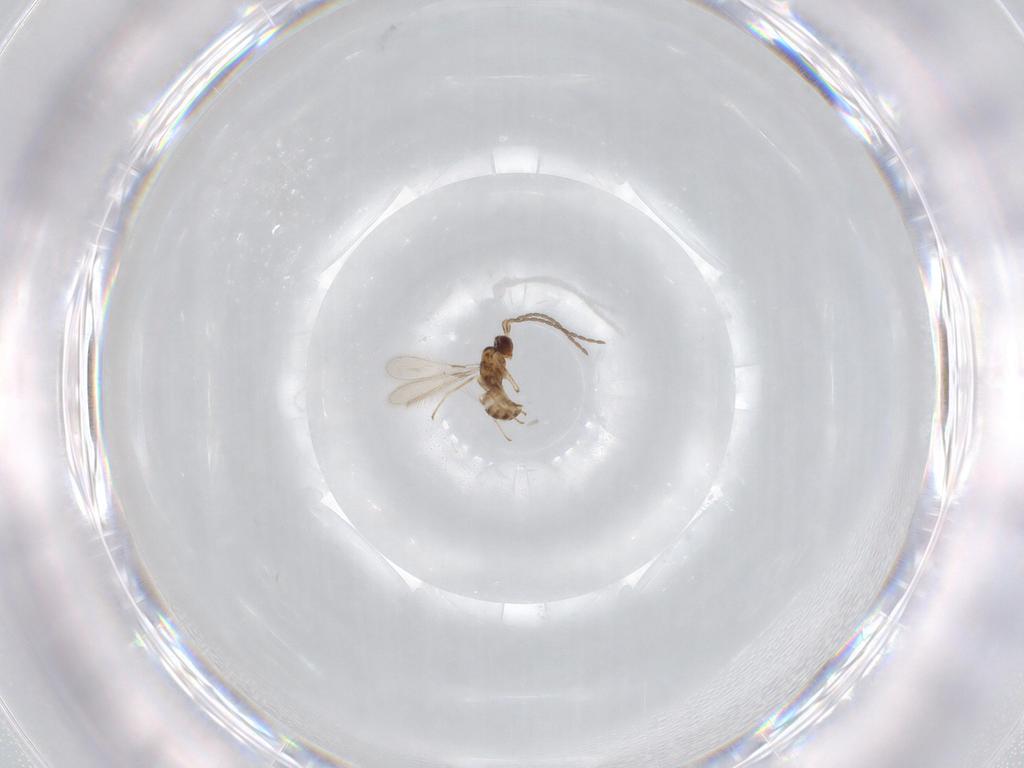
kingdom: Animalia
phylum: Arthropoda
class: Insecta
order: Hymenoptera
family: Mymaridae
